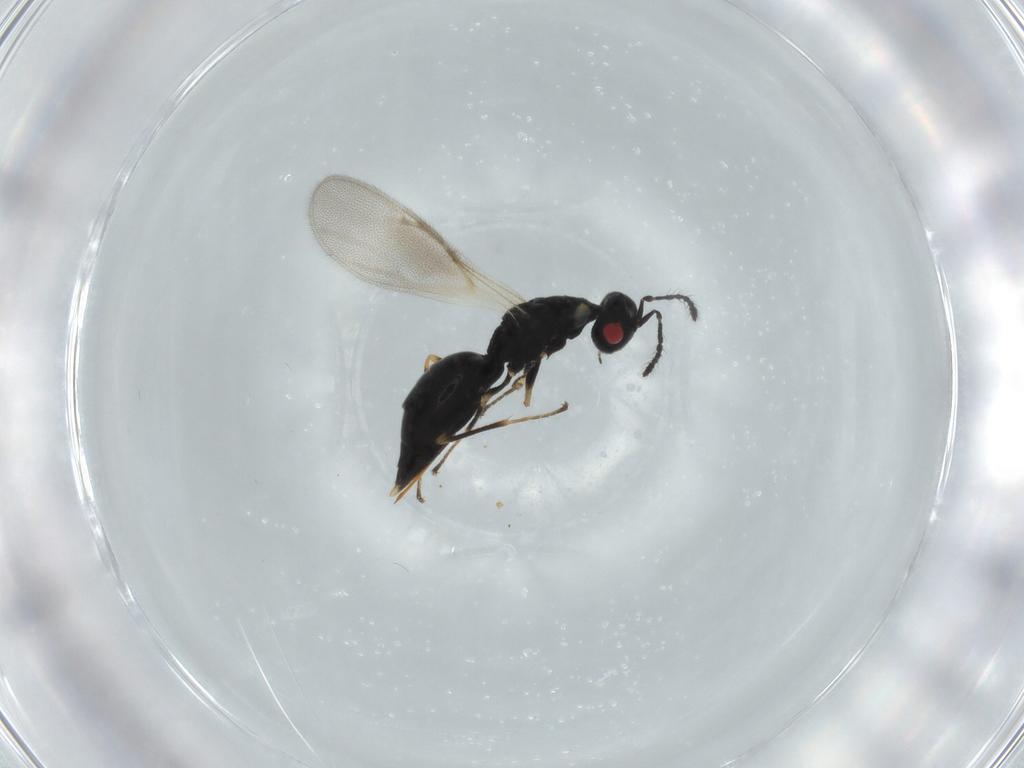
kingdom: Animalia
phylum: Arthropoda
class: Insecta
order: Hymenoptera
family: Eurytomidae
